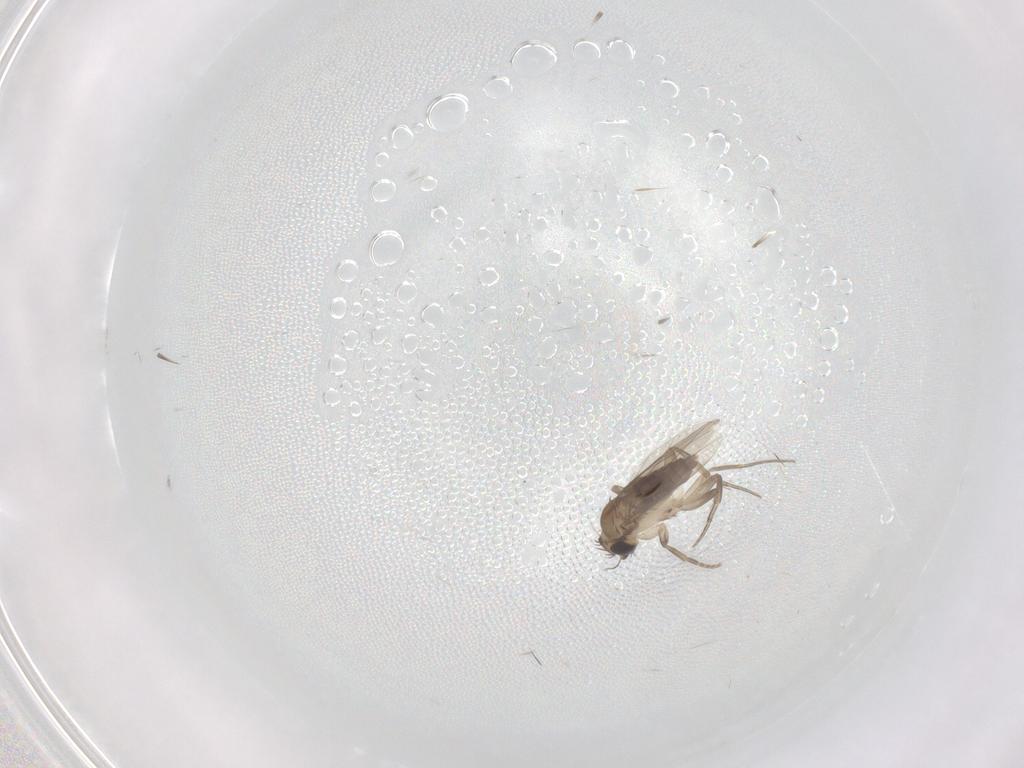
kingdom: Animalia
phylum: Arthropoda
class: Insecta
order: Diptera
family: Phoridae
